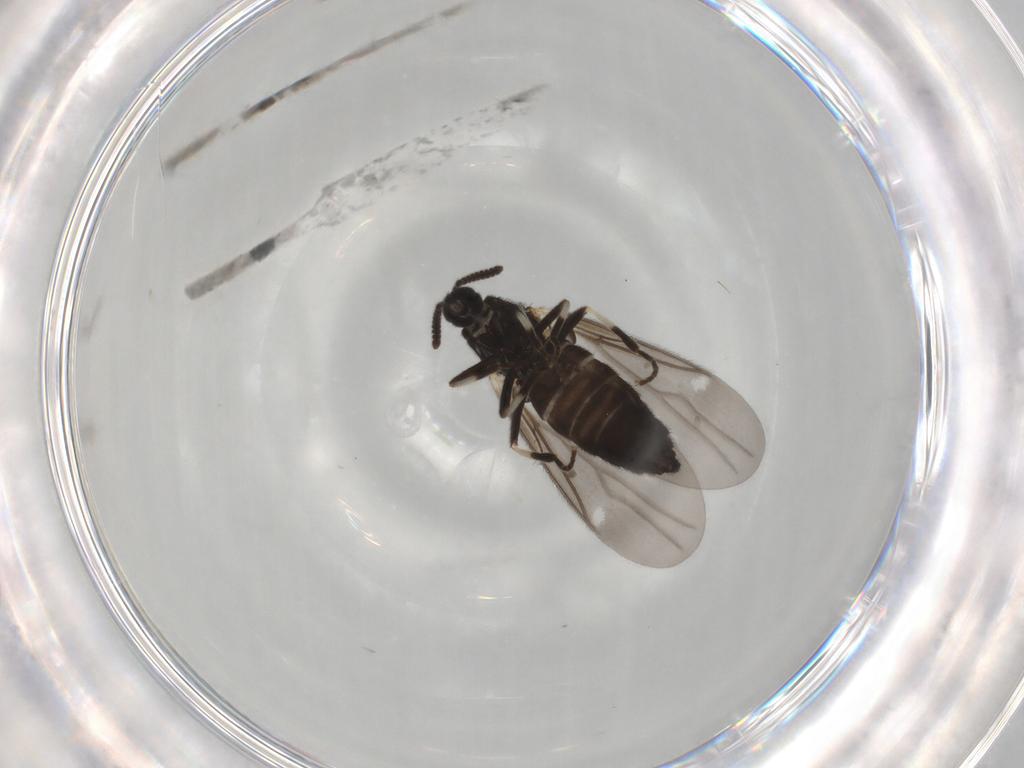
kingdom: Animalia
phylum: Arthropoda
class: Insecta
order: Diptera
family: Scatopsidae
